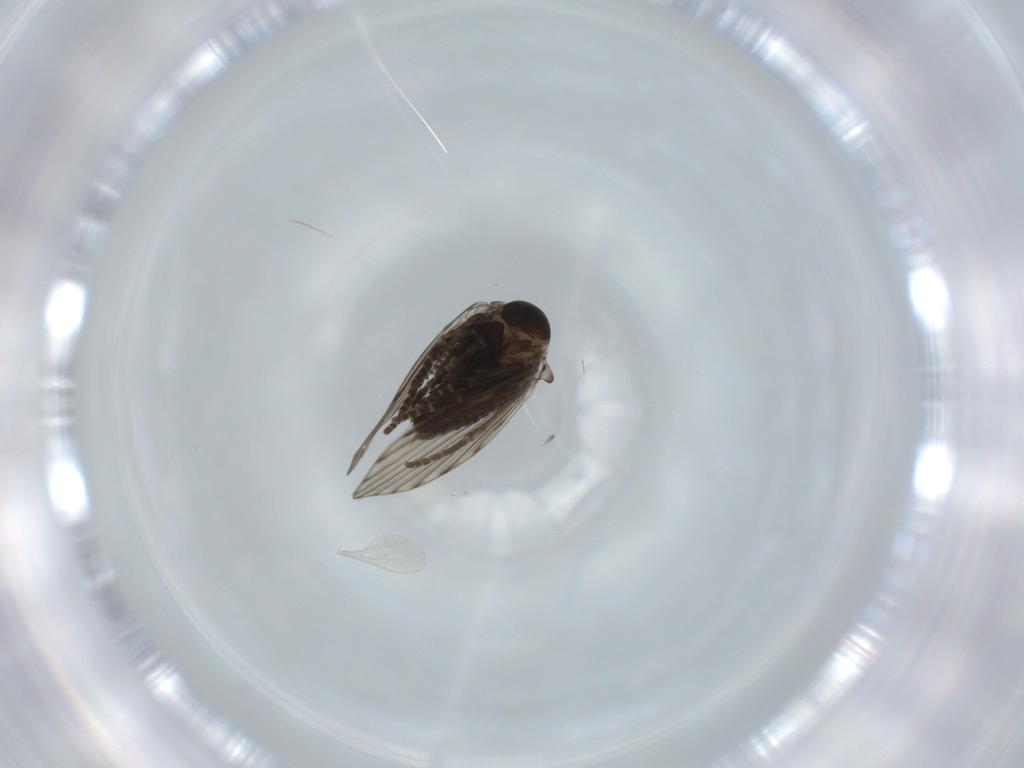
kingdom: Animalia
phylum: Arthropoda
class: Insecta
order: Diptera
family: Psychodidae
